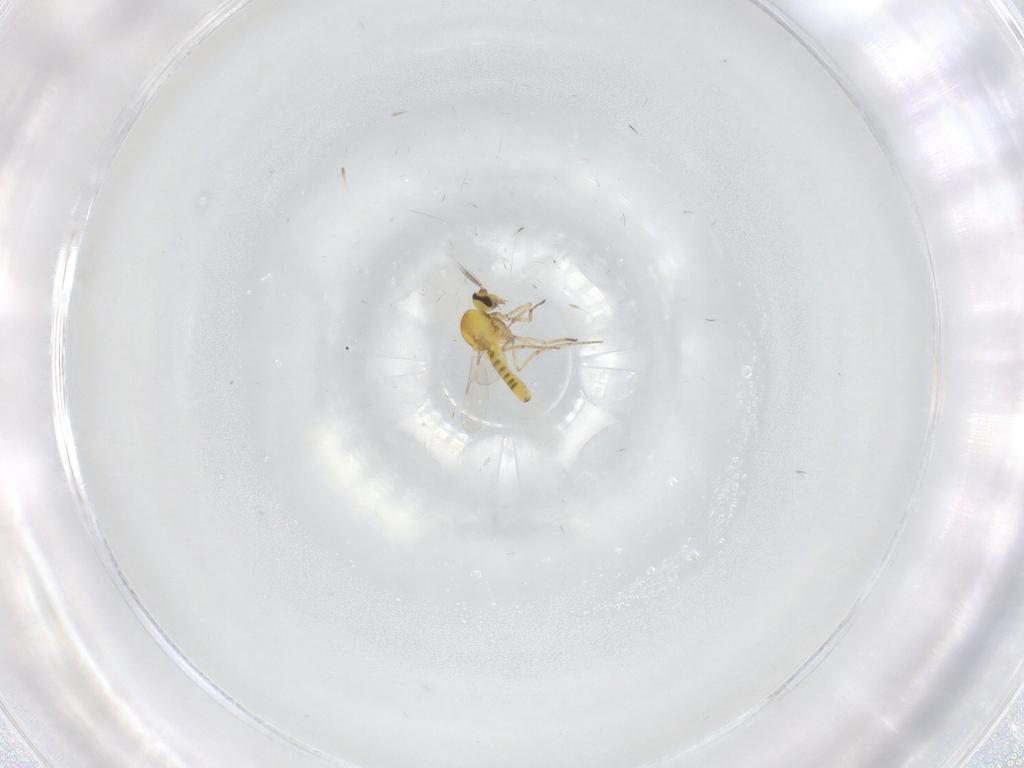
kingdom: Animalia
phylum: Arthropoda
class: Insecta
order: Diptera
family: Ceratopogonidae
